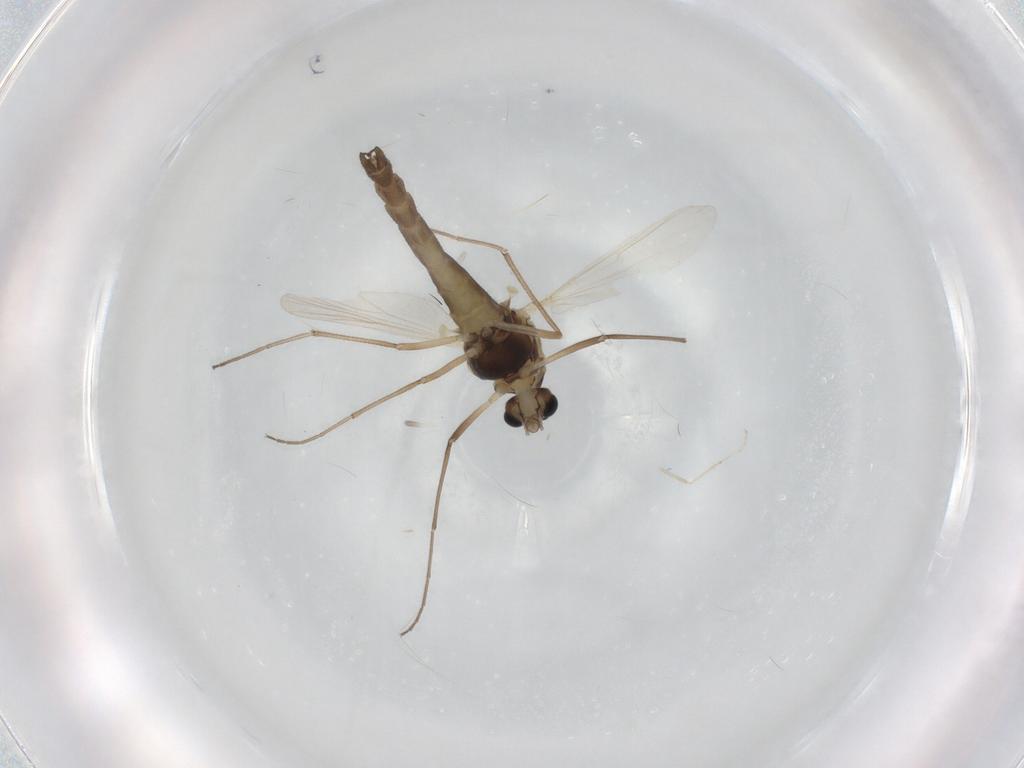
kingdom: Animalia
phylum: Arthropoda
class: Insecta
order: Diptera
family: Chironomidae
